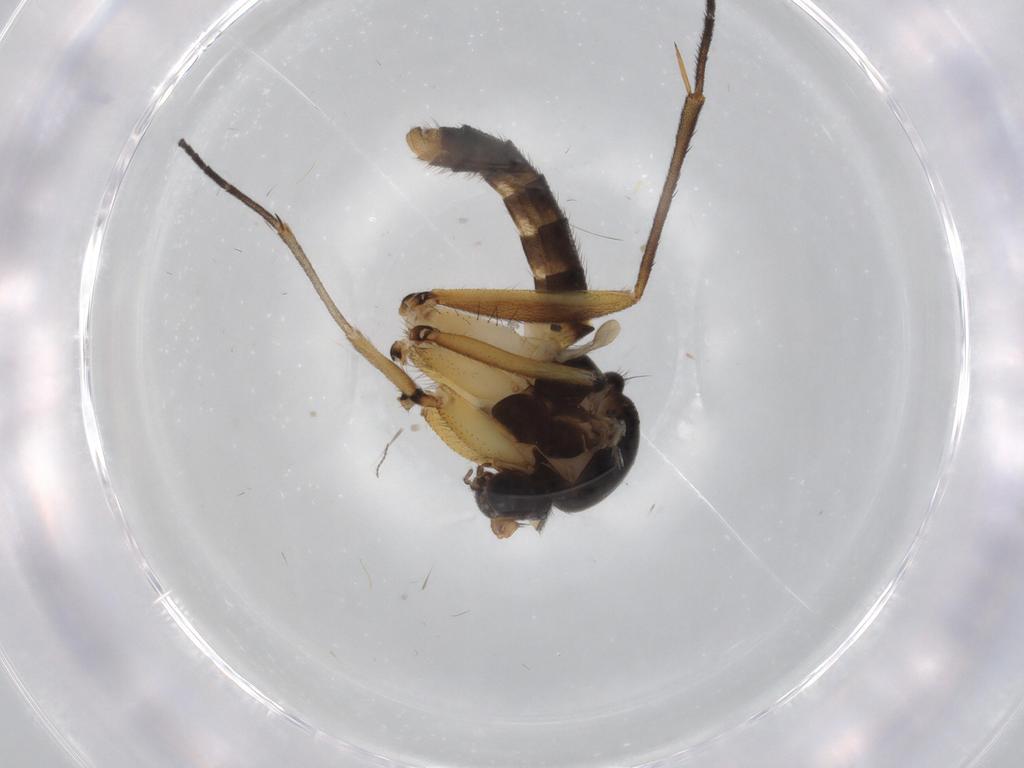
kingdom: Animalia
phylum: Arthropoda
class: Insecta
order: Diptera
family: Mycetophilidae
